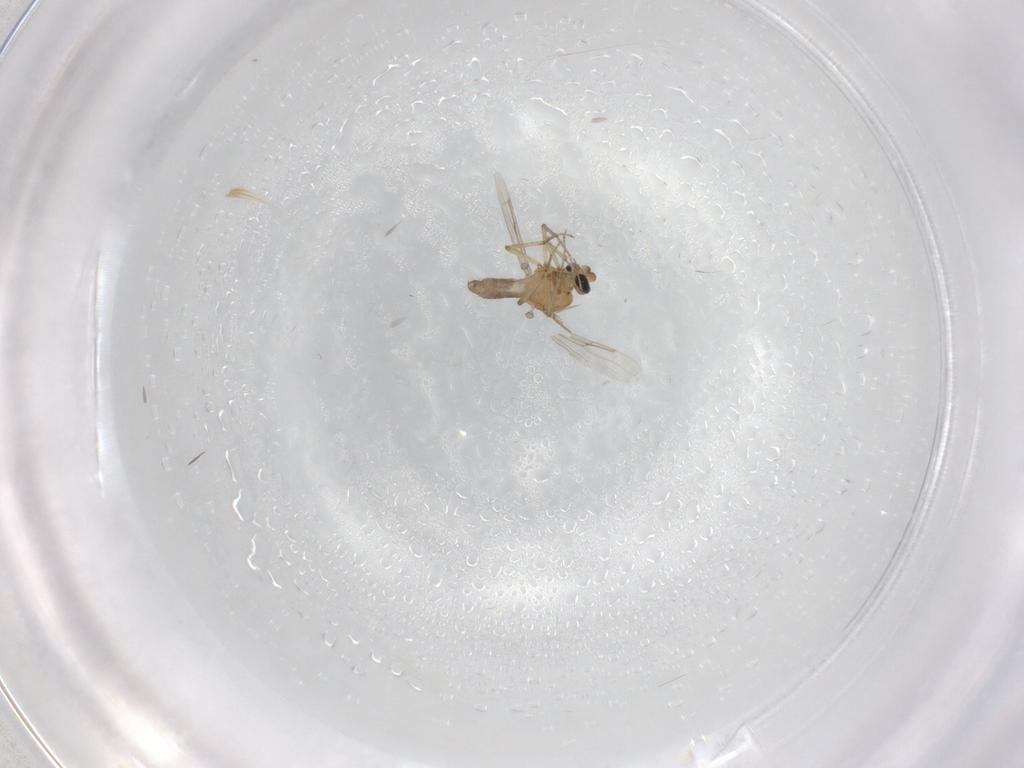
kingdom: Animalia
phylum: Arthropoda
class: Insecta
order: Diptera
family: Ceratopogonidae
